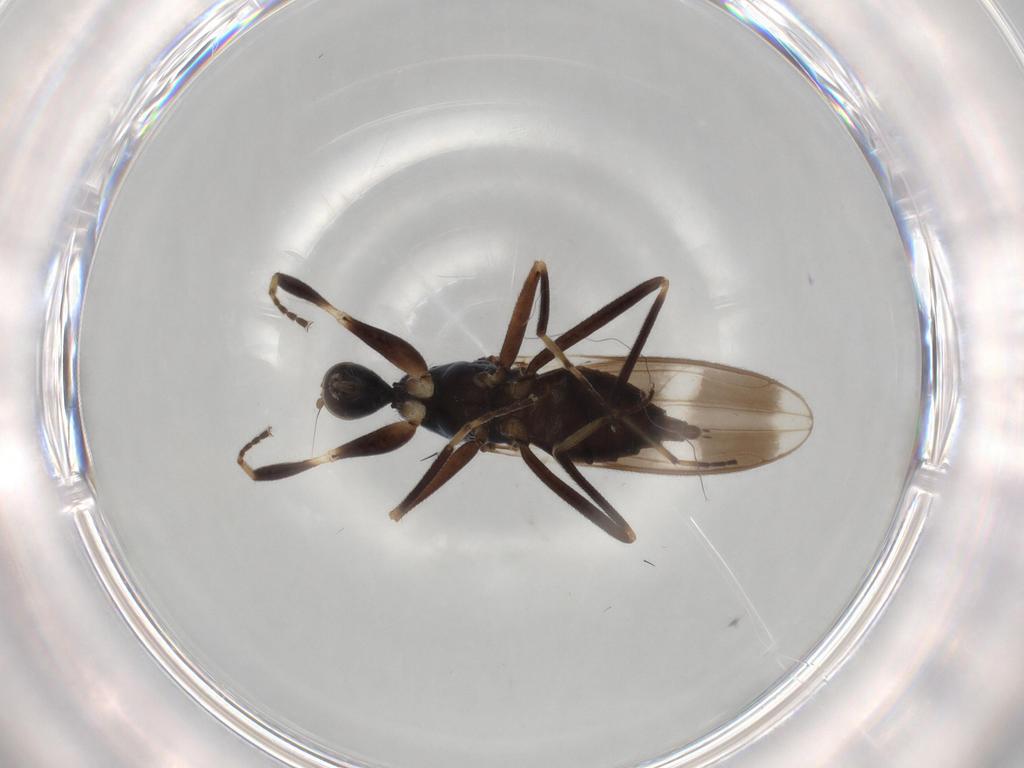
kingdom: Animalia
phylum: Arthropoda
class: Insecta
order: Diptera
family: Hybotidae
